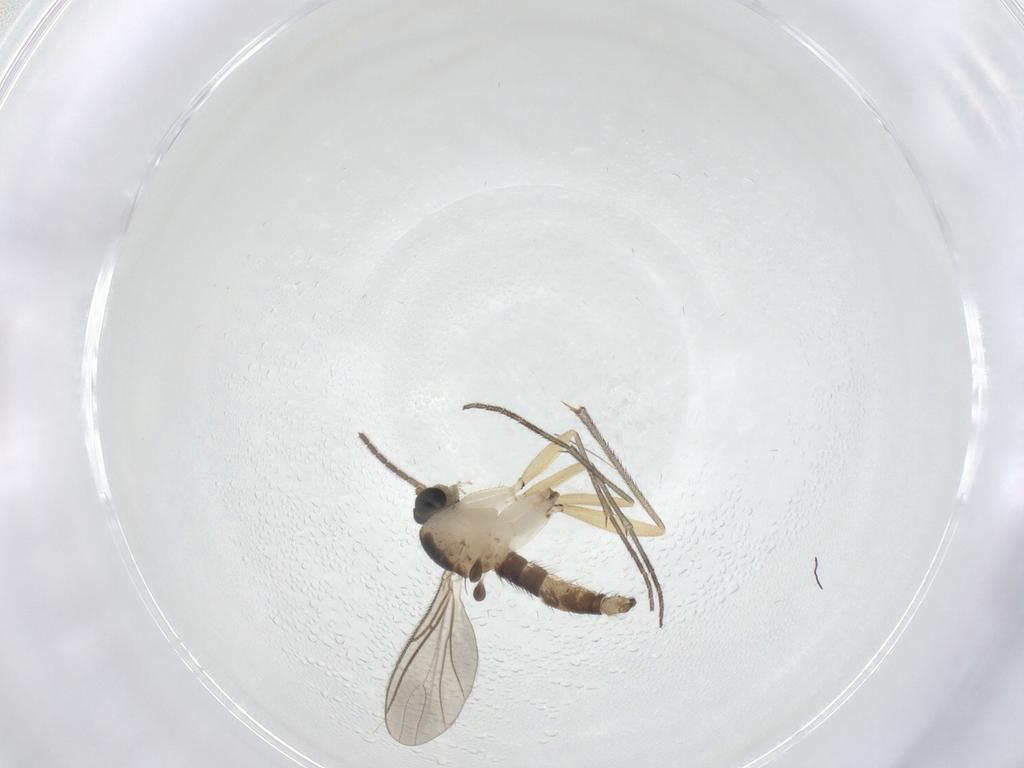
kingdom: Animalia
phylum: Arthropoda
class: Insecta
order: Diptera
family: Sciaridae
